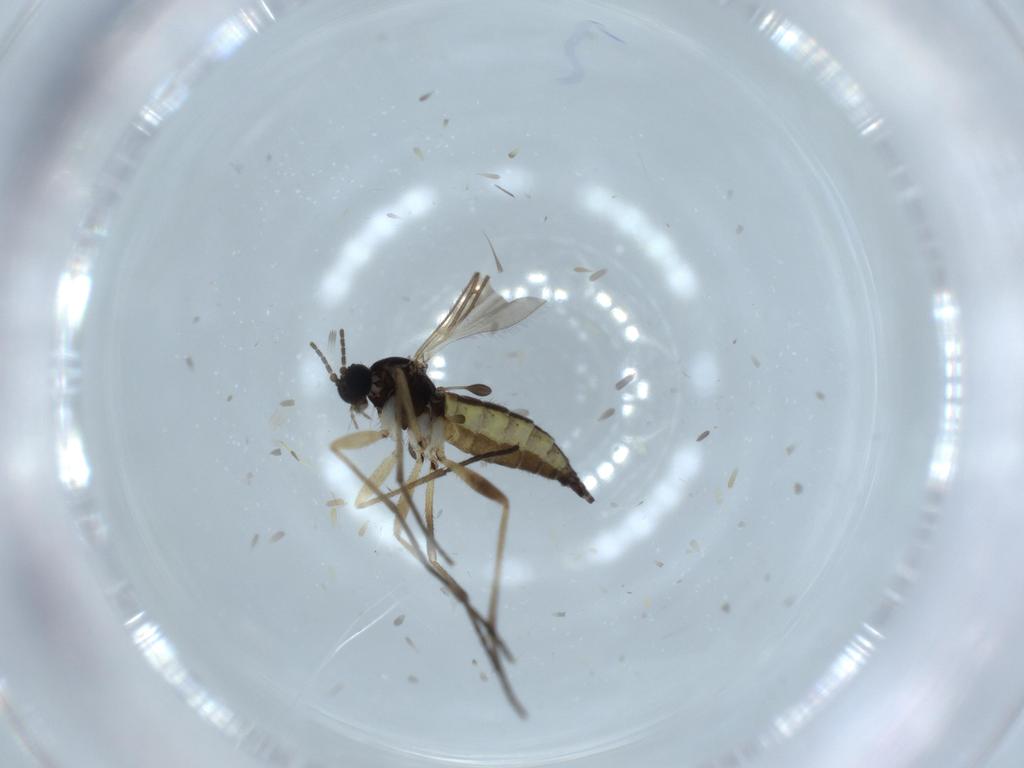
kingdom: Animalia
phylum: Arthropoda
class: Insecta
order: Diptera
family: Sciaridae
